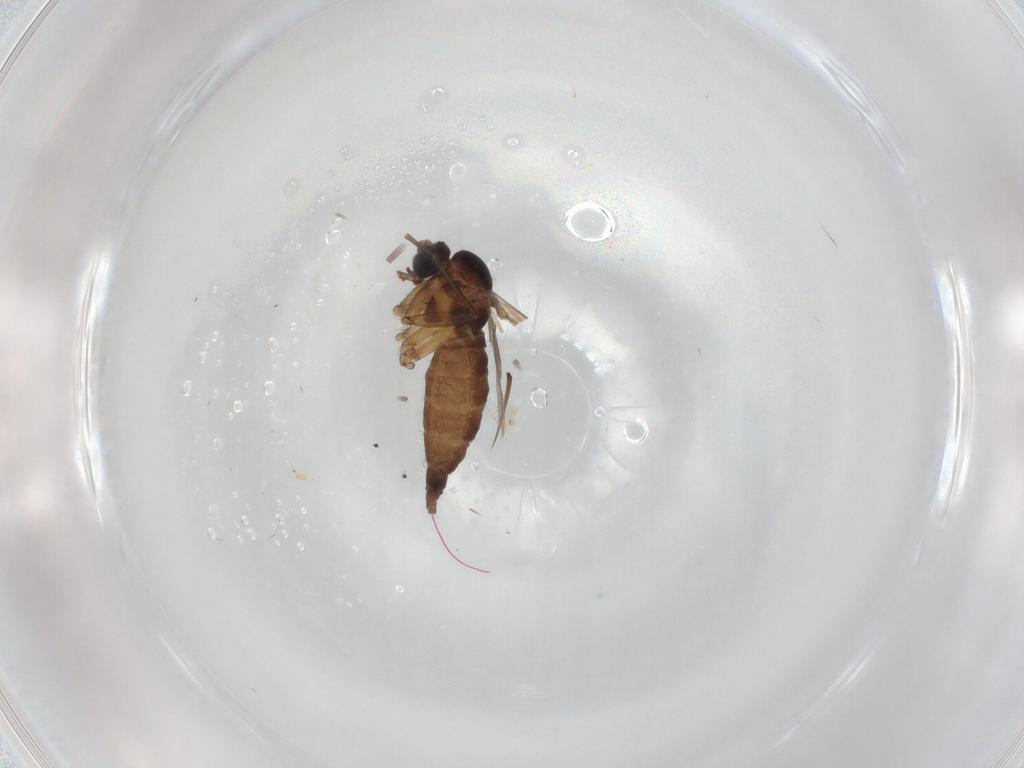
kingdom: Animalia
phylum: Arthropoda
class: Insecta
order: Diptera
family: Sciaridae
